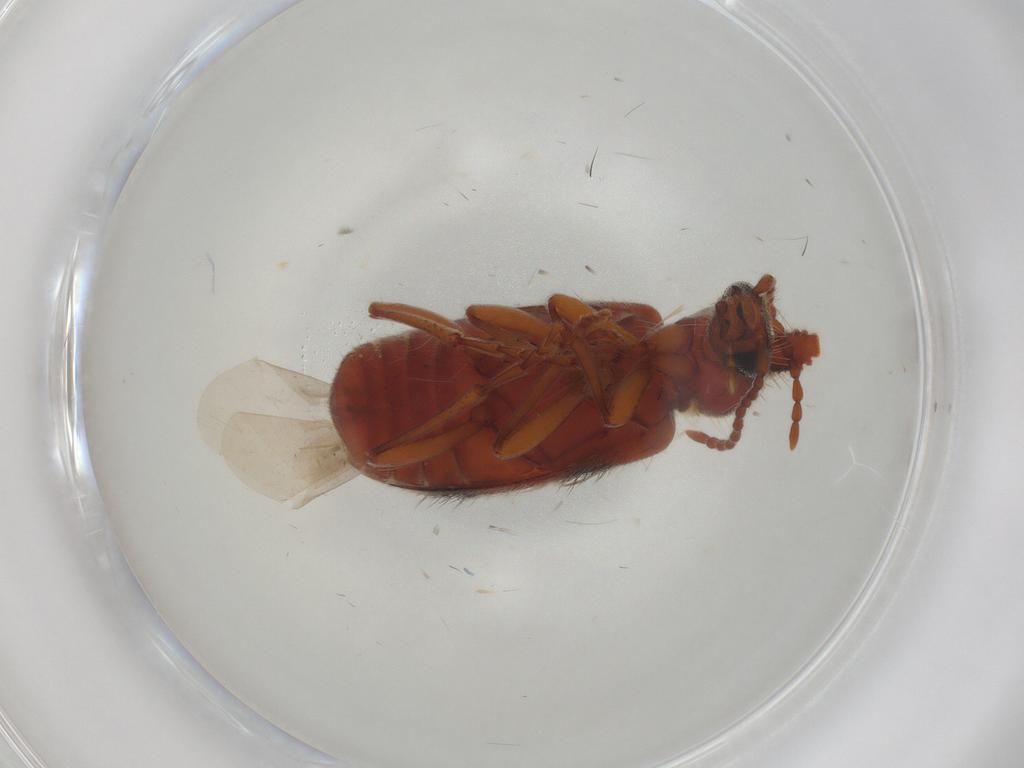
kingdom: Animalia
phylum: Arthropoda
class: Insecta
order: Coleoptera
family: Anthicidae
